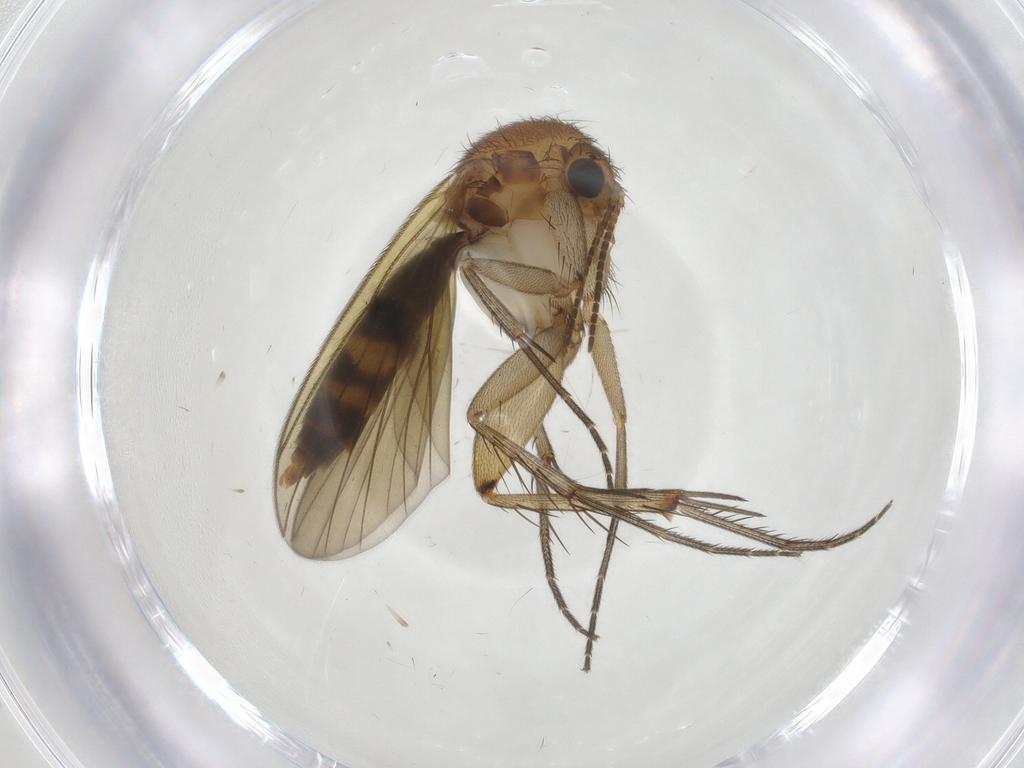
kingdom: Animalia
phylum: Arthropoda
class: Insecta
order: Diptera
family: Mycetophilidae
